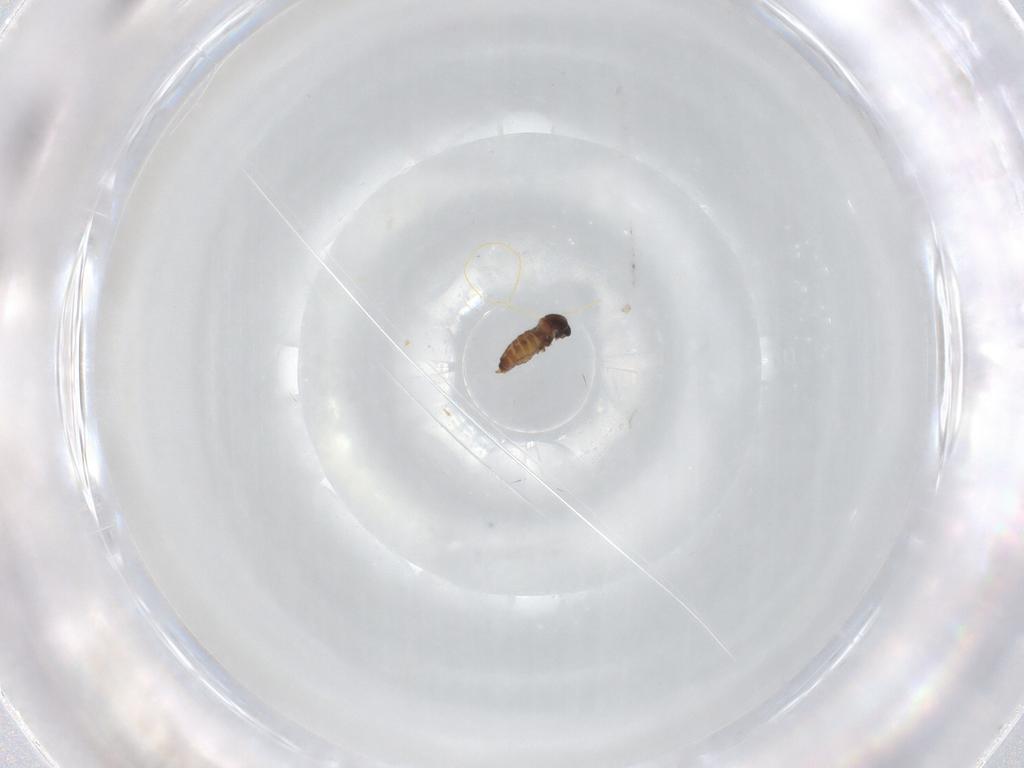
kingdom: Animalia
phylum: Arthropoda
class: Insecta
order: Diptera
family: Cecidomyiidae
